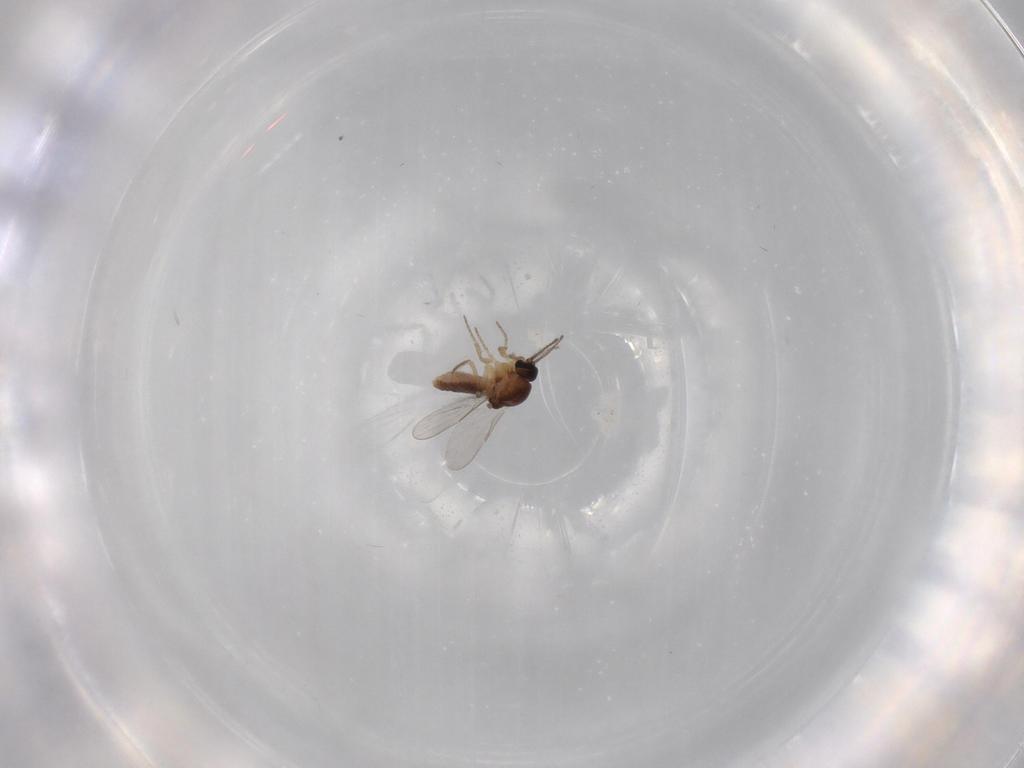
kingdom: Animalia
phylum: Arthropoda
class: Insecta
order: Diptera
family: Ceratopogonidae
